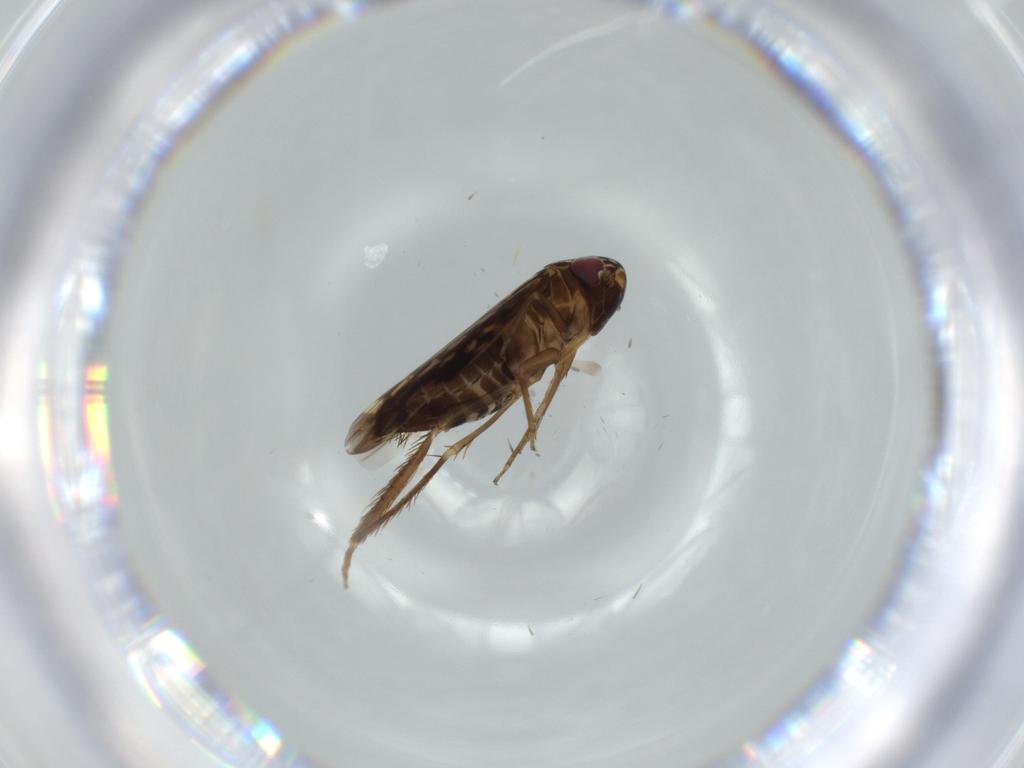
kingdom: Animalia
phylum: Arthropoda
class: Insecta
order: Hemiptera
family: Cicadellidae
